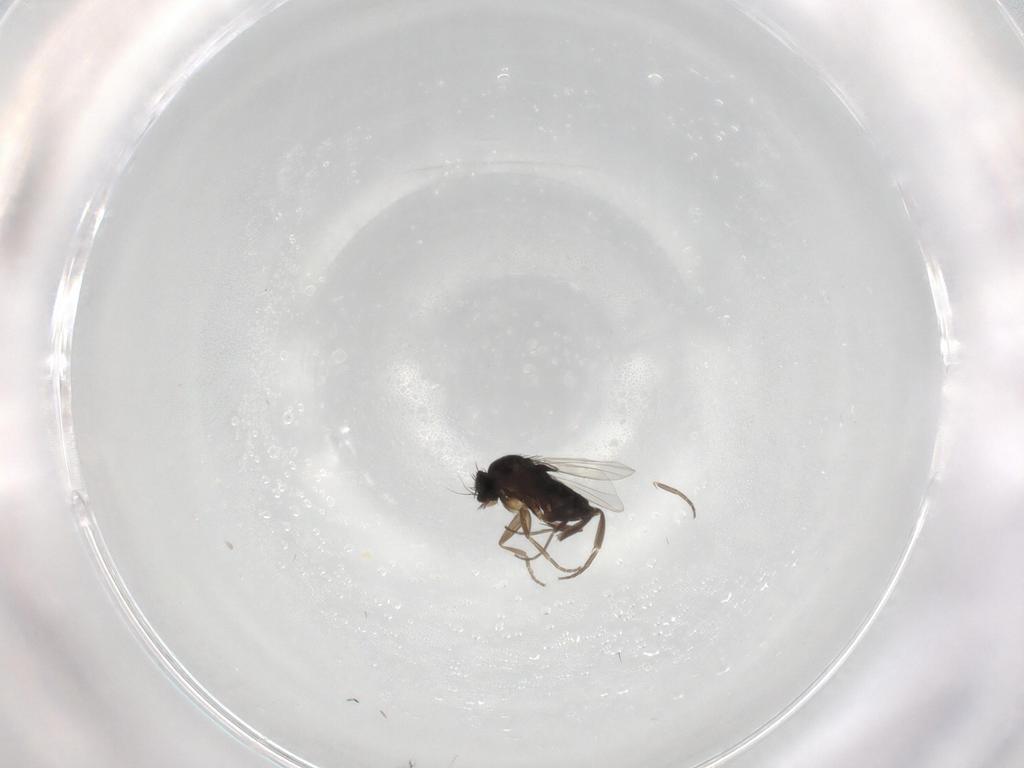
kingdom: Animalia
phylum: Arthropoda
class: Insecta
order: Diptera
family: Phoridae
